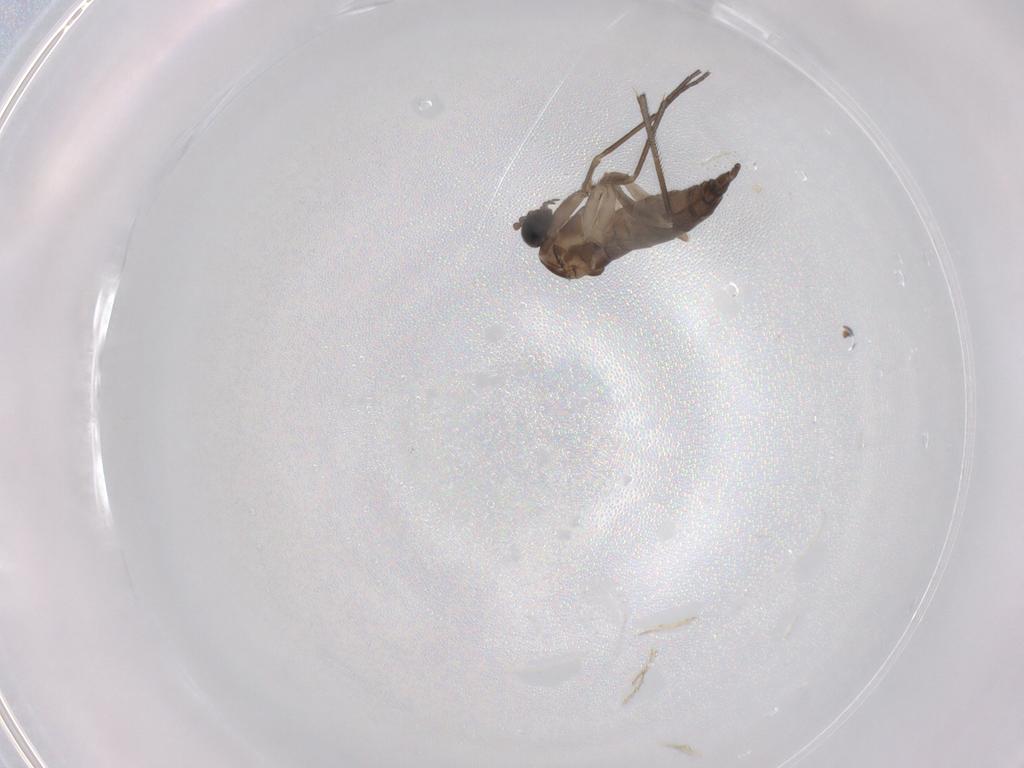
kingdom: Animalia
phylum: Arthropoda
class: Insecta
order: Diptera
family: Sciaridae
